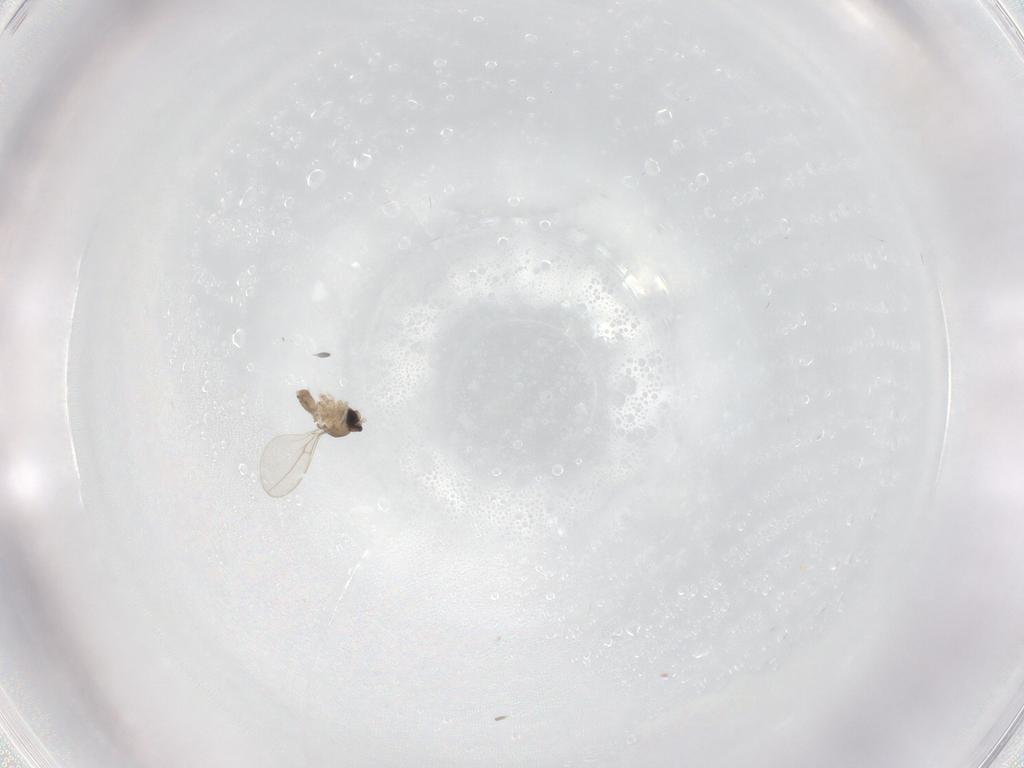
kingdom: Animalia
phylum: Arthropoda
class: Insecta
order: Diptera
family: Cecidomyiidae
